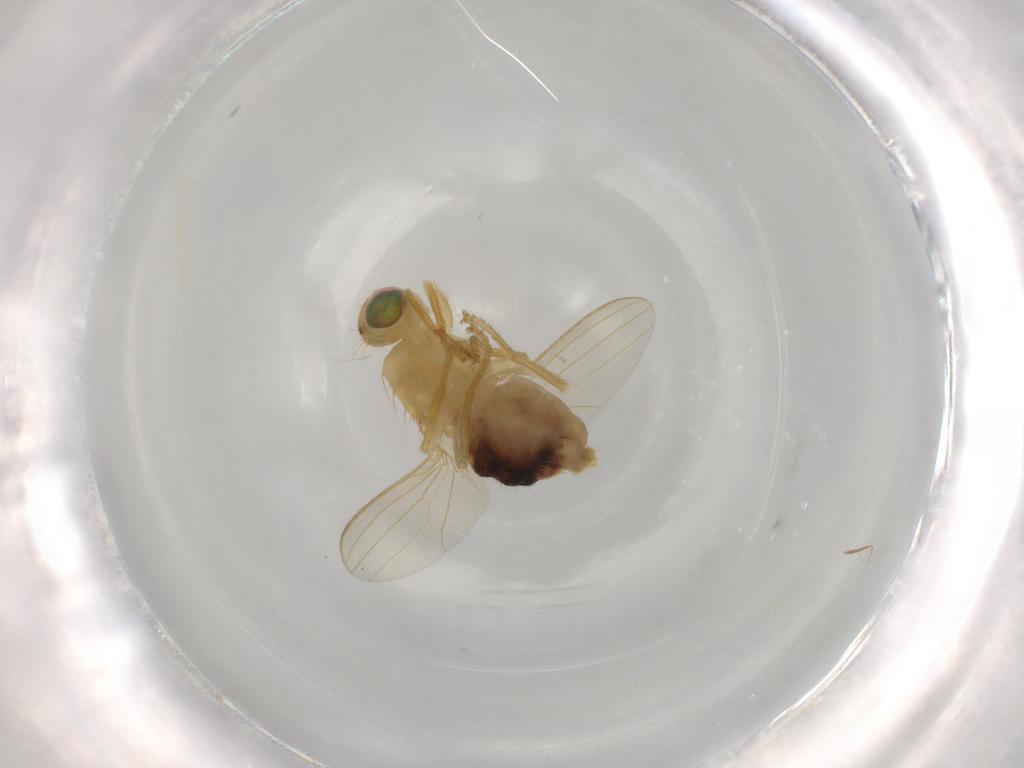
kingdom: Animalia
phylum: Arthropoda
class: Insecta
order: Diptera
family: Chyromyidae
